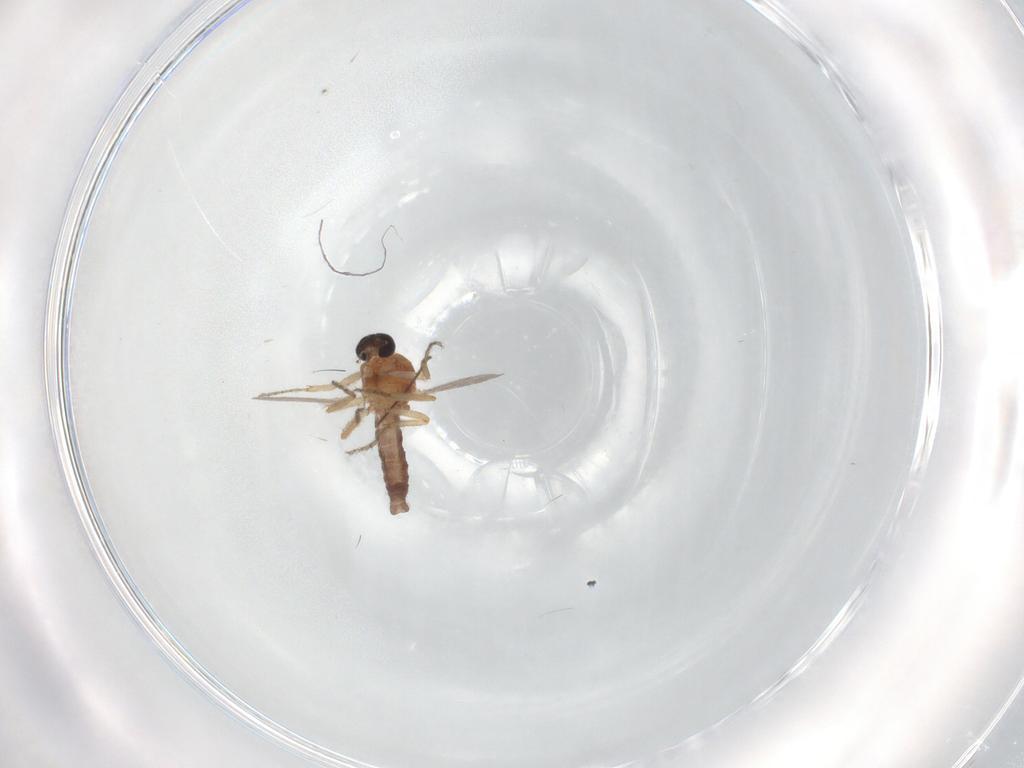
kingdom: Animalia
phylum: Arthropoda
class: Insecta
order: Diptera
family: Ceratopogonidae
